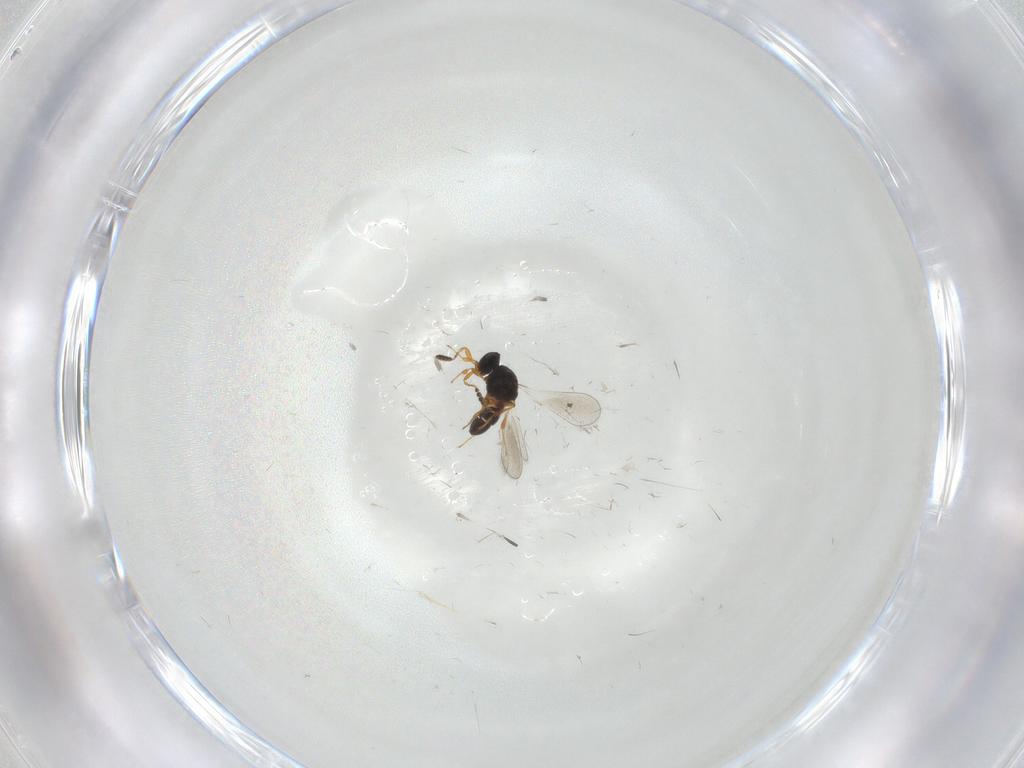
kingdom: Animalia
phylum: Arthropoda
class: Insecta
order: Hymenoptera
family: Platygastridae
